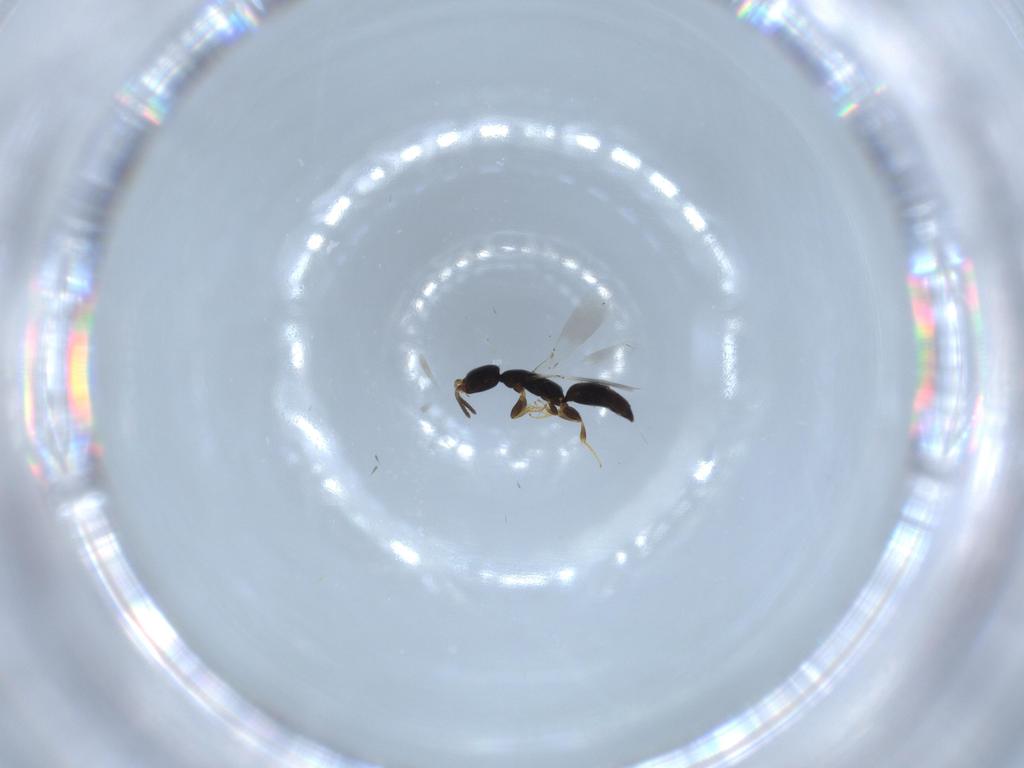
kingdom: Animalia
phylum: Arthropoda
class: Insecta
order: Hymenoptera
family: Bethylidae
